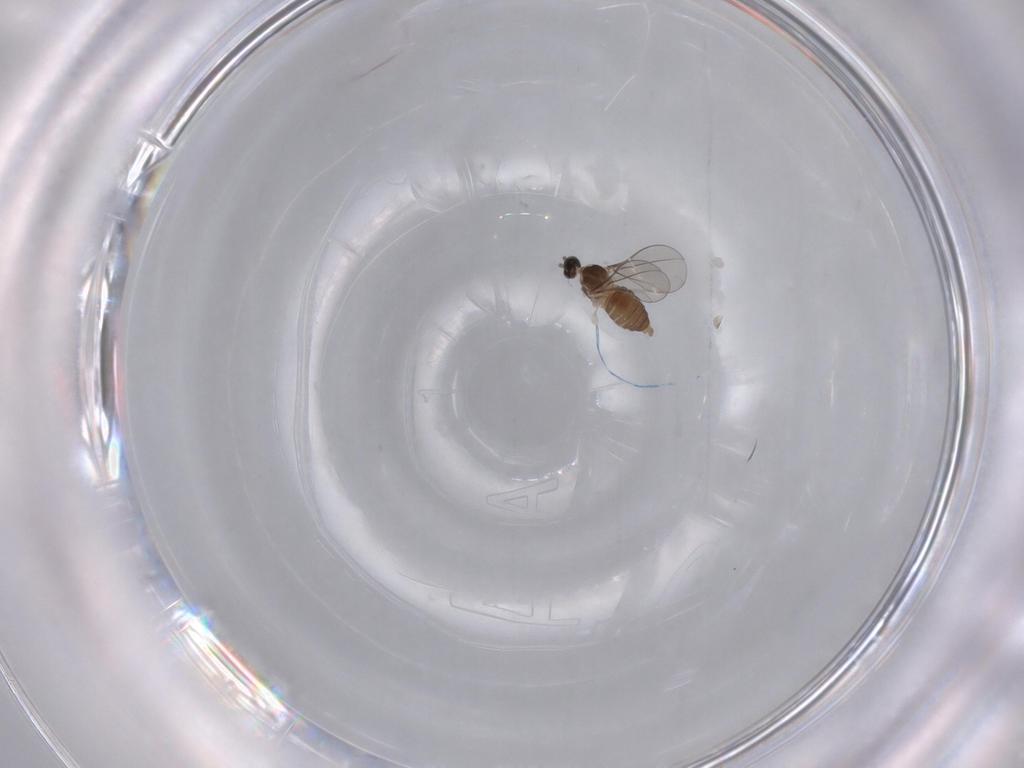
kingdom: Animalia
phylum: Arthropoda
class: Insecta
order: Diptera
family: Cecidomyiidae
